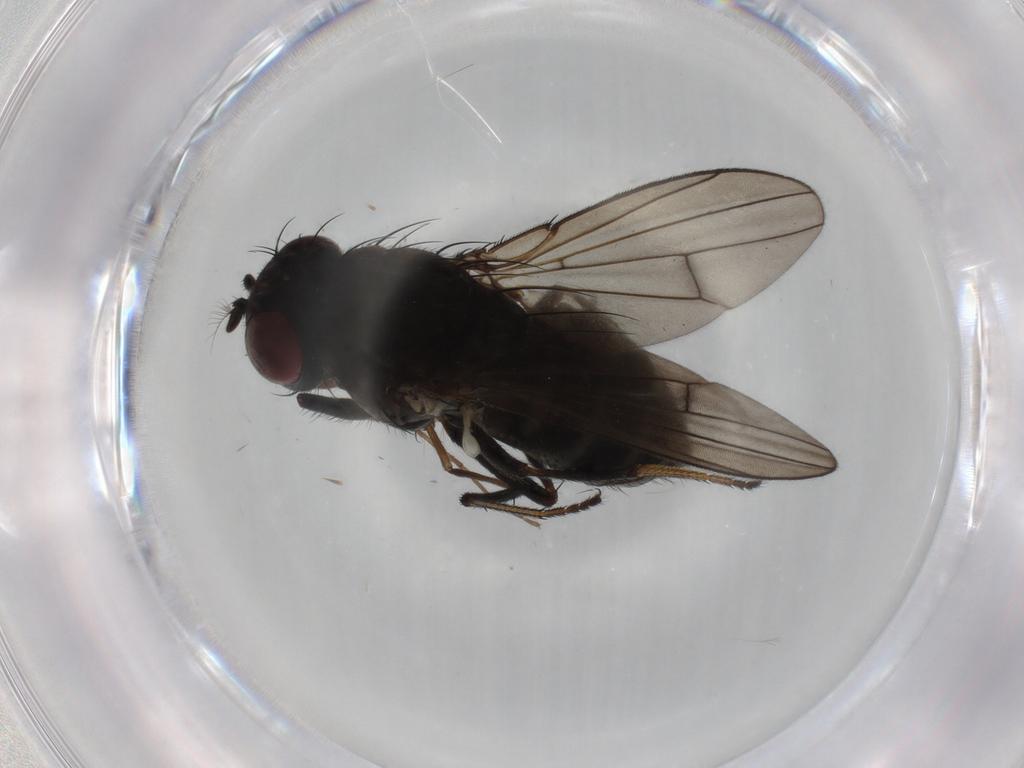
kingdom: Animalia
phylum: Arthropoda
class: Insecta
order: Diptera
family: Ephydridae
